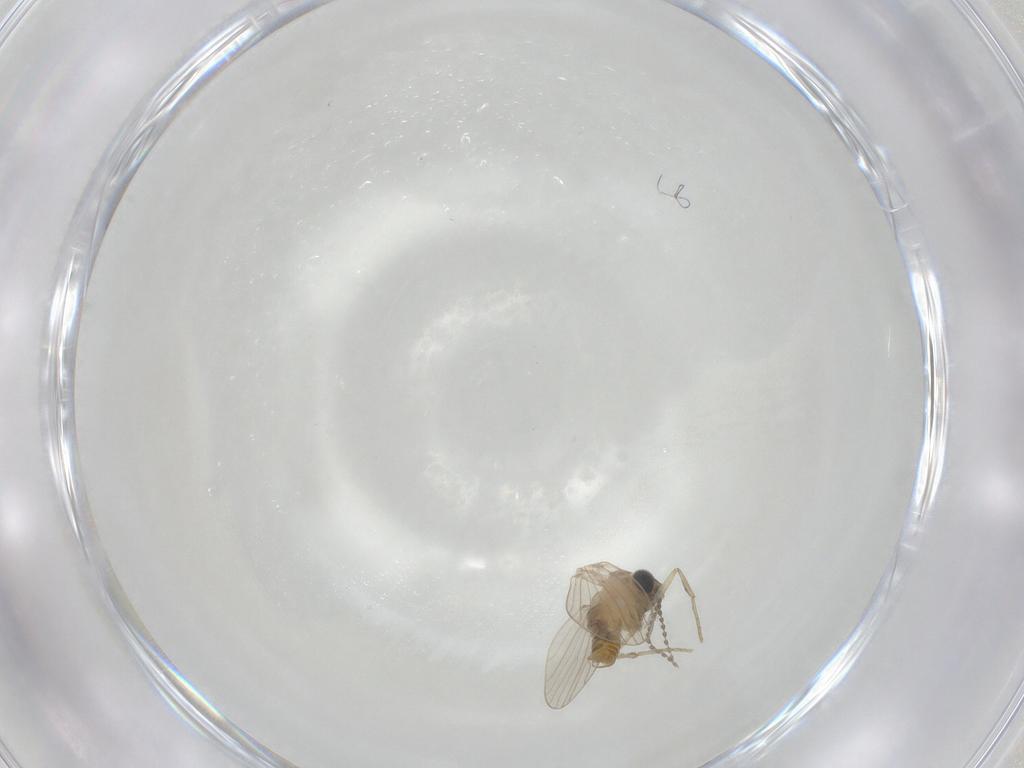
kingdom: Animalia
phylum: Arthropoda
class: Insecta
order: Diptera
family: Psychodidae
